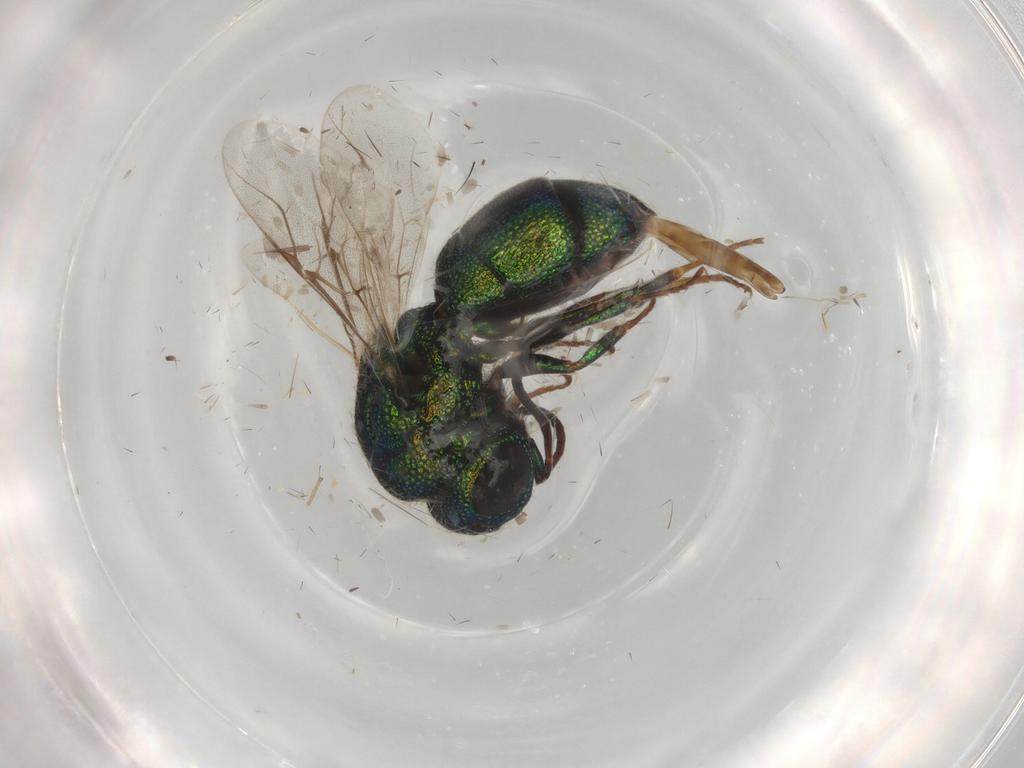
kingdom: Animalia
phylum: Arthropoda
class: Insecta
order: Hymenoptera
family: Chrysididae
